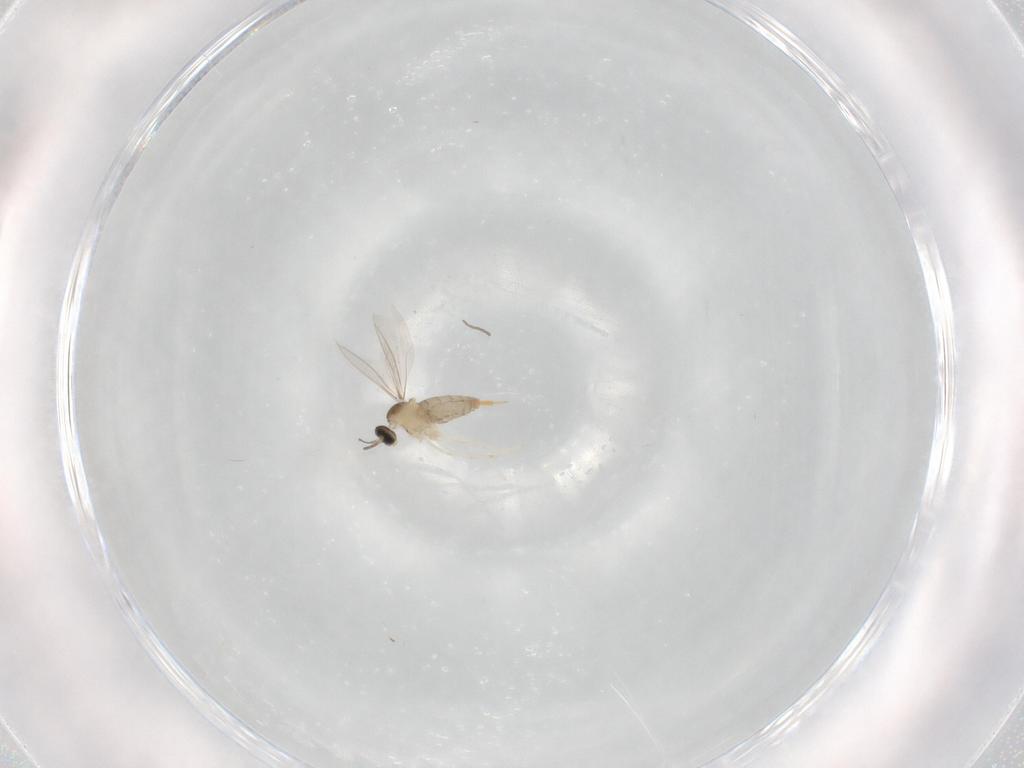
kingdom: Animalia
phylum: Arthropoda
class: Insecta
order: Diptera
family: Cecidomyiidae
